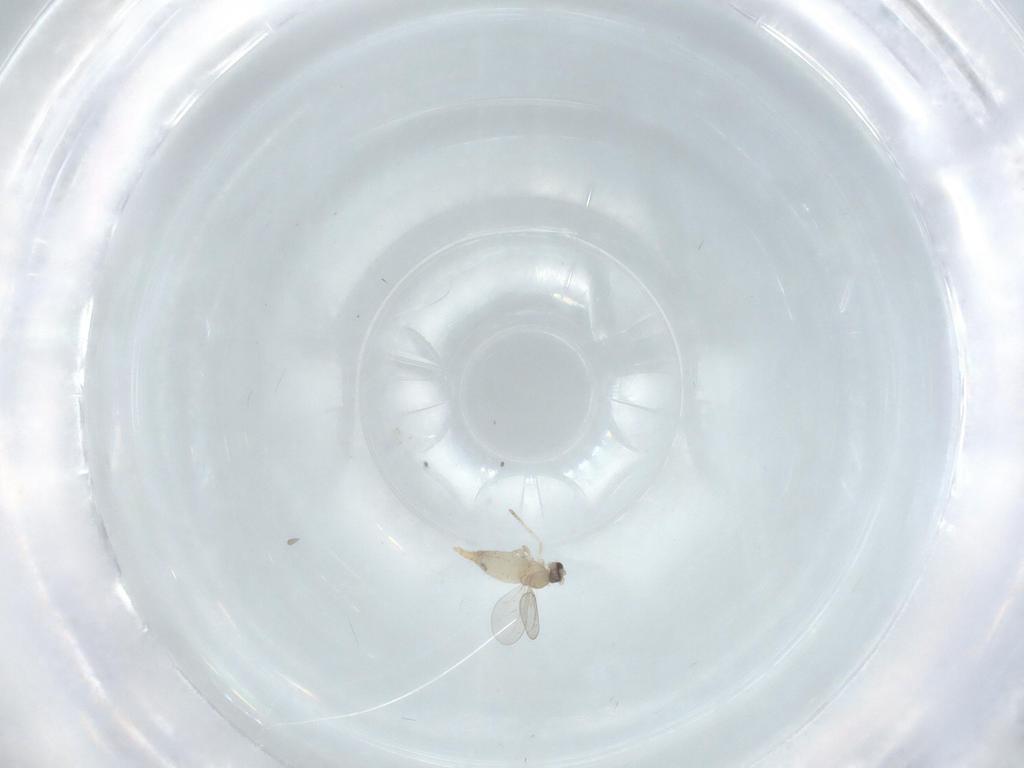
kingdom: Animalia
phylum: Arthropoda
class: Insecta
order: Diptera
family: Cecidomyiidae
